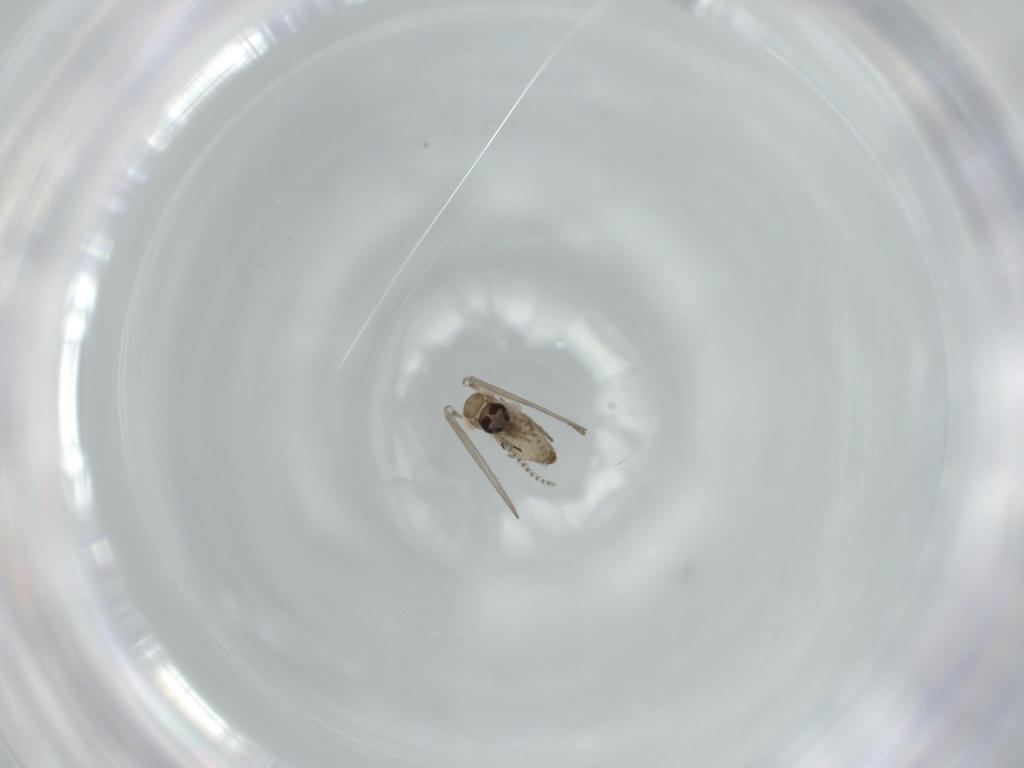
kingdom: Animalia
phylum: Arthropoda
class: Insecta
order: Diptera
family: Psychodidae
